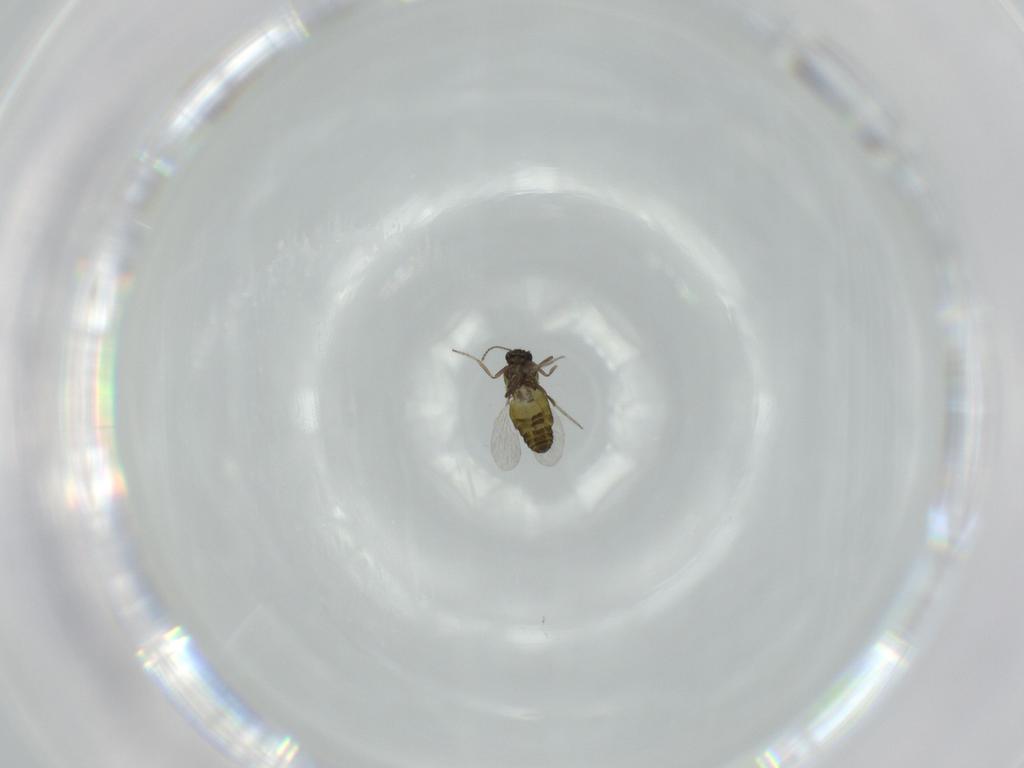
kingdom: Animalia
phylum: Arthropoda
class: Insecta
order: Diptera
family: Ceratopogonidae
